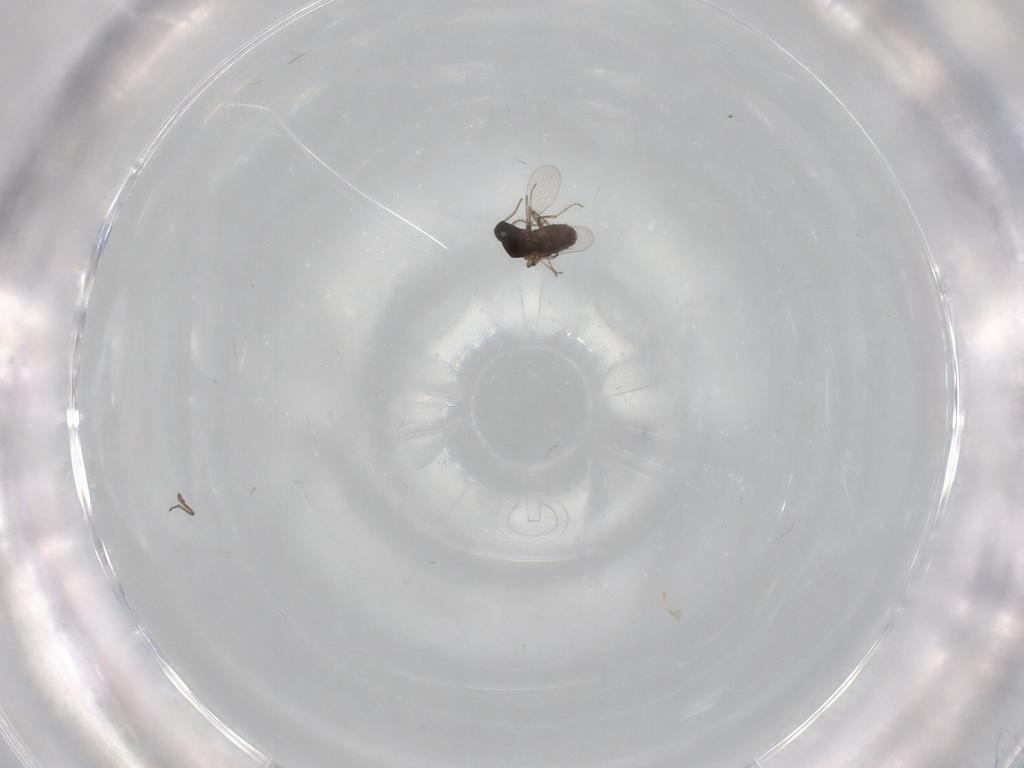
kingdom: Animalia
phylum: Arthropoda
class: Insecta
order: Diptera
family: Ceratopogonidae
